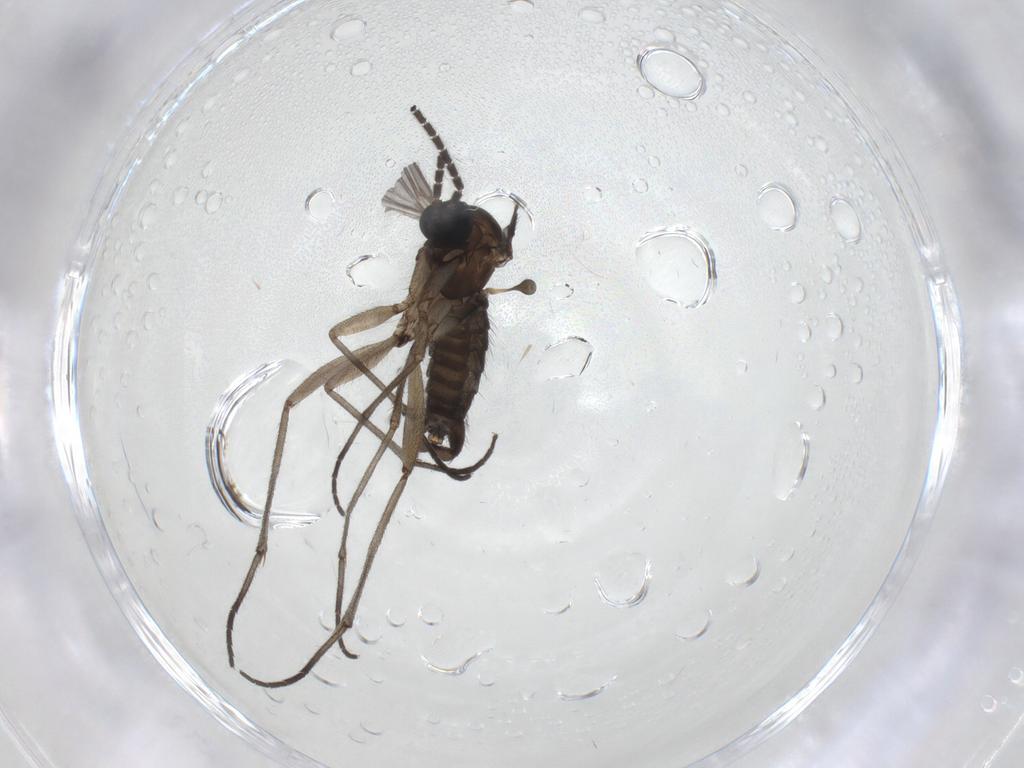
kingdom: Animalia
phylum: Arthropoda
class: Insecta
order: Diptera
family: Sciaridae
